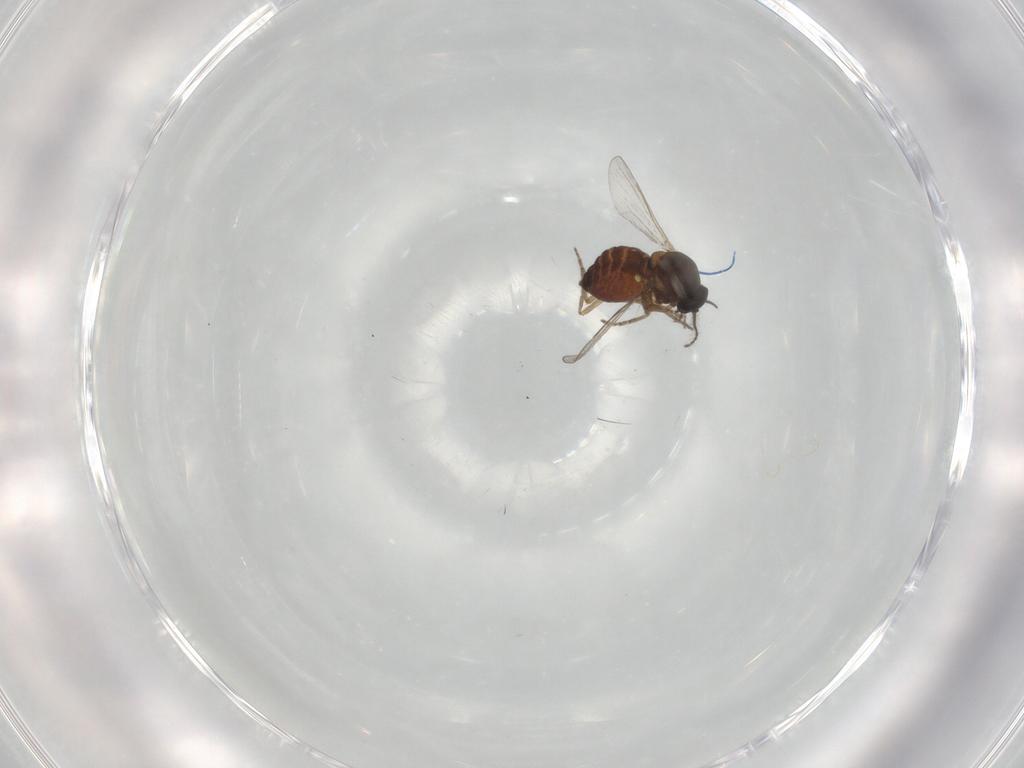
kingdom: Animalia
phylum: Arthropoda
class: Insecta
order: Diptera
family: Ceratopogonidae
